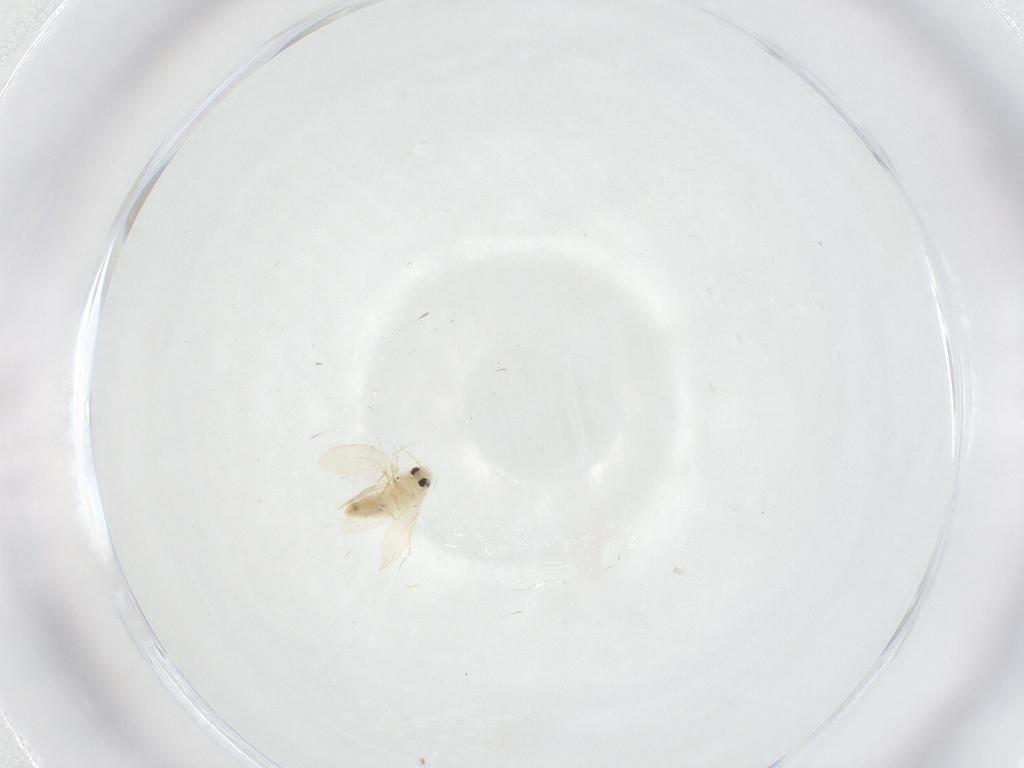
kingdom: Animalia
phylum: Arthropoda
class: Insecta
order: Hemiptera
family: Aleyrodidae
